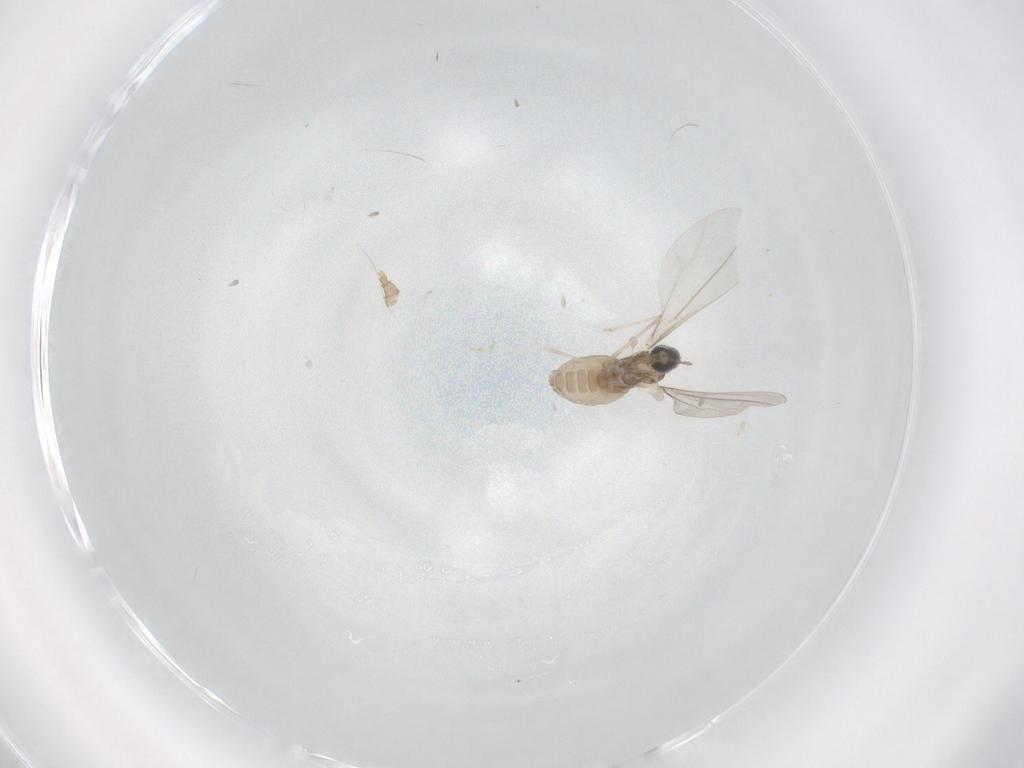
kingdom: Animalia
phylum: Arthropoda
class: Insecta
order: Diptera
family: Cecidomyiidae
